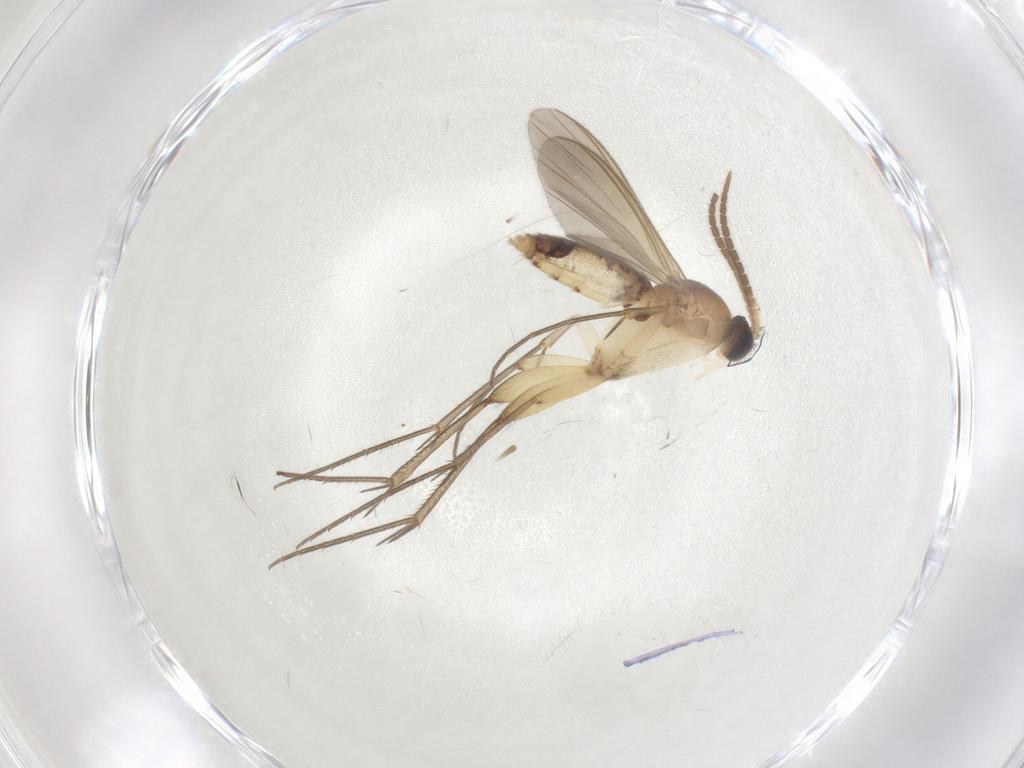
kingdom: Animalia
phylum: Arthropoda
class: Insecta
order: Diptera
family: Mycetophilidae
